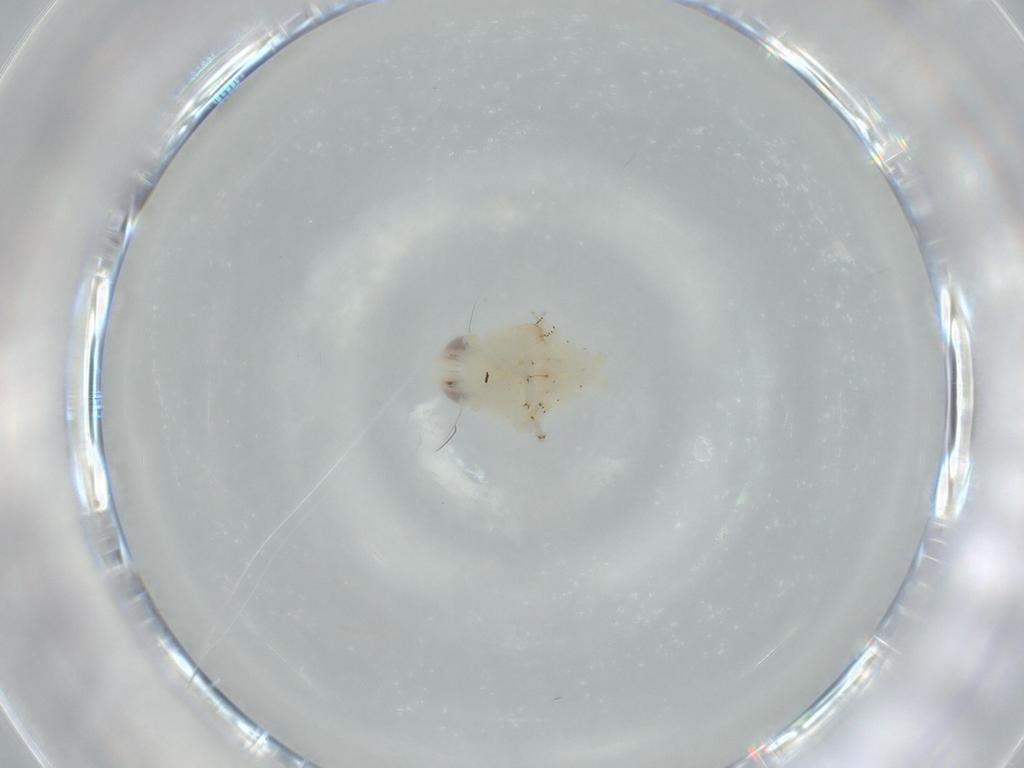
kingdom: Animalia
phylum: Arthropoda
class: Insecta
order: Hemiptera
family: Nogodinidae
